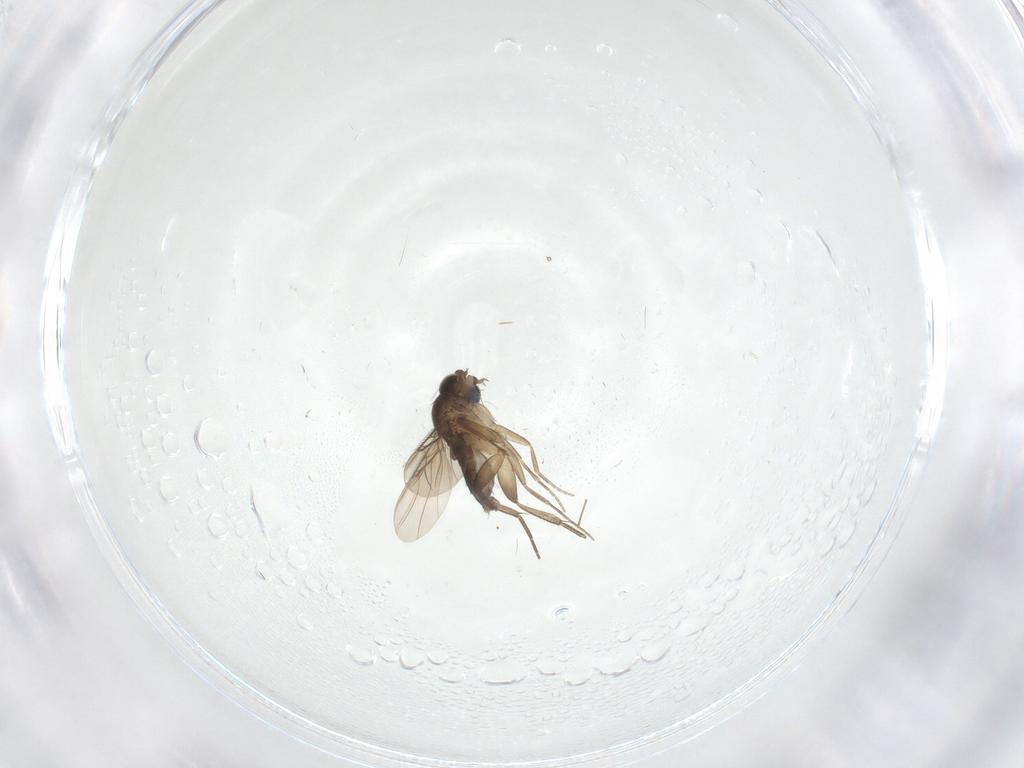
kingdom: Animalia
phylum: Arthropoda
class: Insecta
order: Diptera
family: Phoridae
